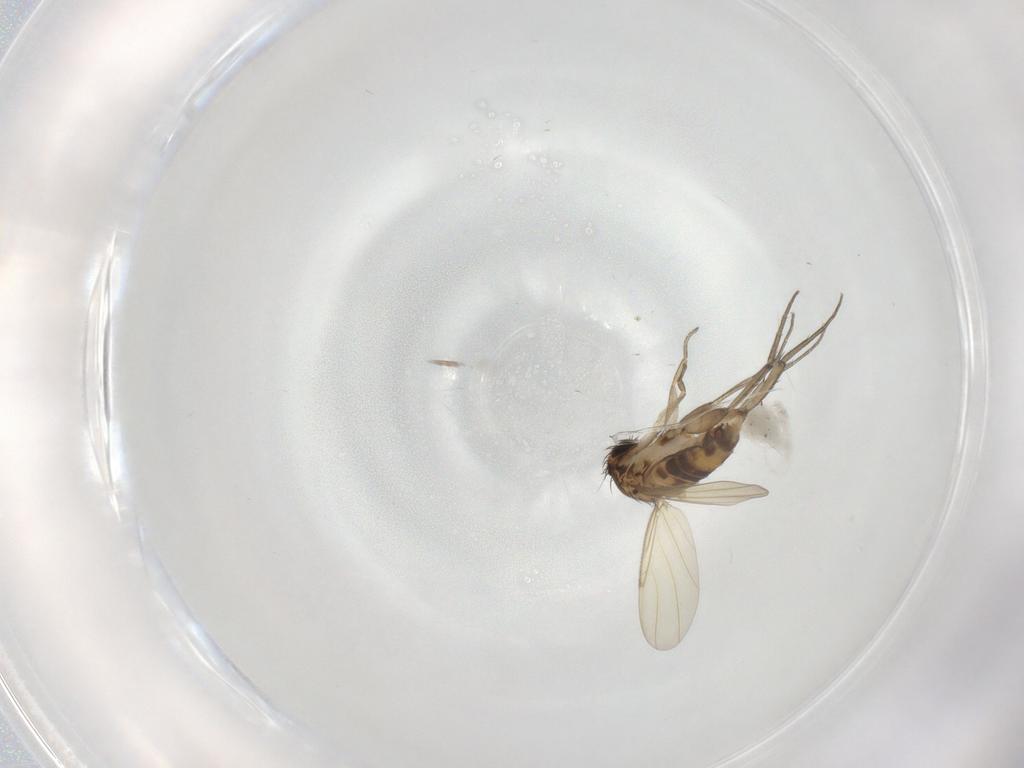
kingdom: Animalia
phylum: Arthropoda
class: Insecta
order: Diptera
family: Phoridae
